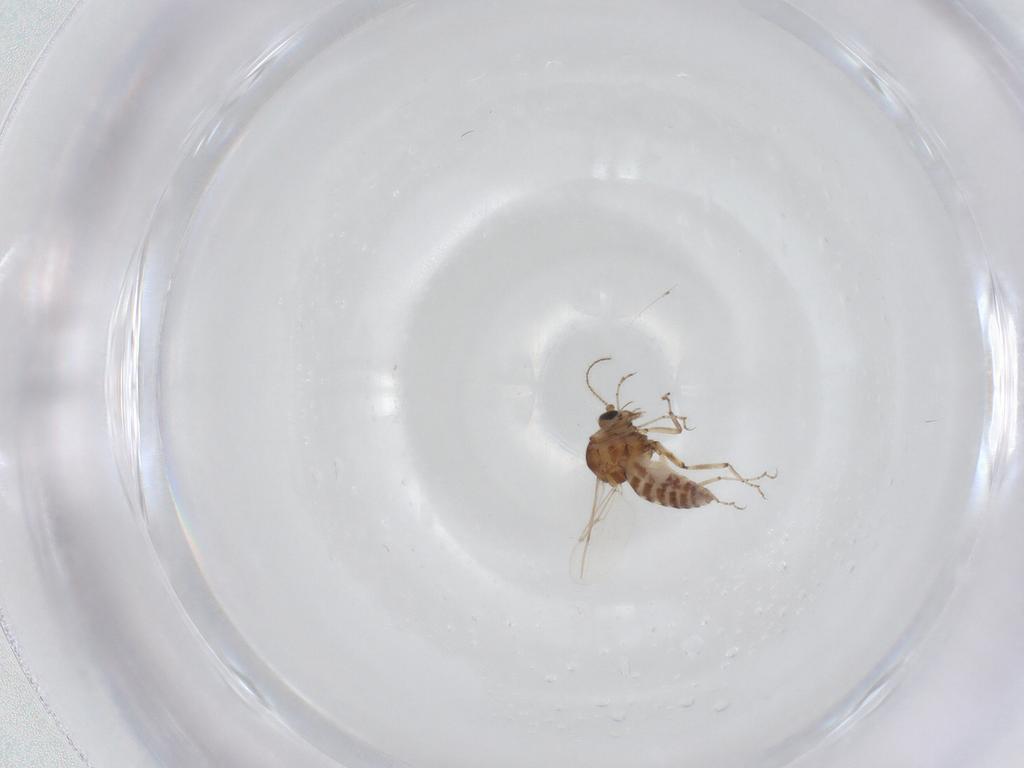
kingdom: Animalia
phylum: Arthropoda
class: Insecta
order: Diptera
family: Ceratopogonidae
